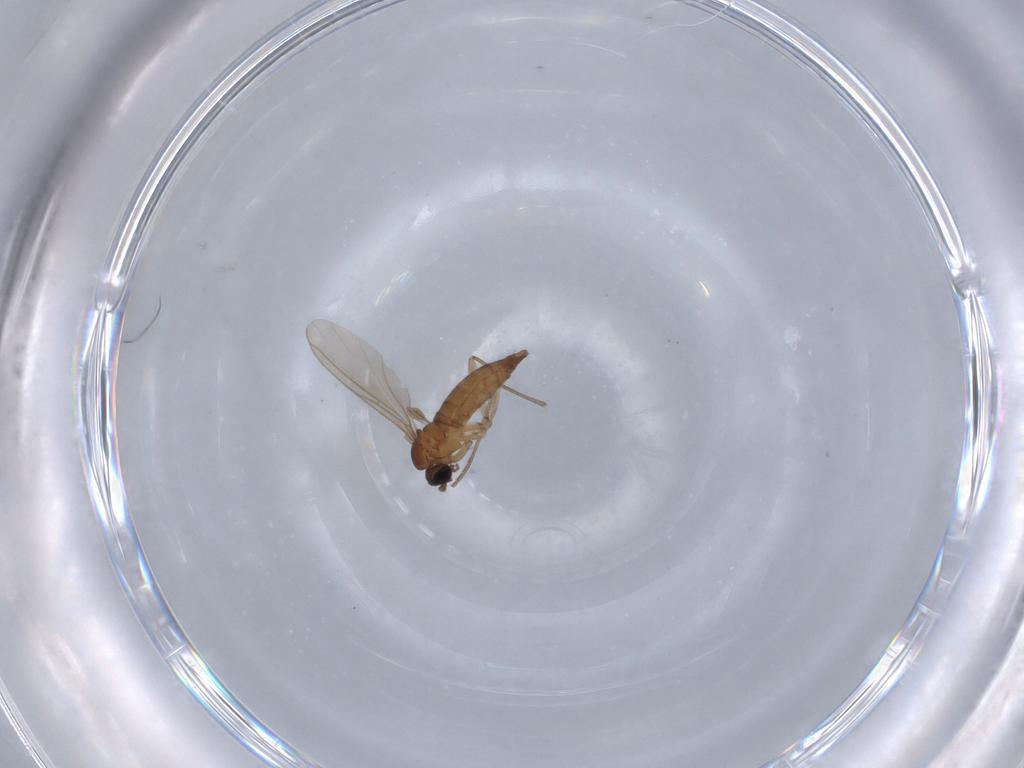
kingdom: Animalia
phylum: Arthropoda
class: Insecta
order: Diptera
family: Sciaridae
